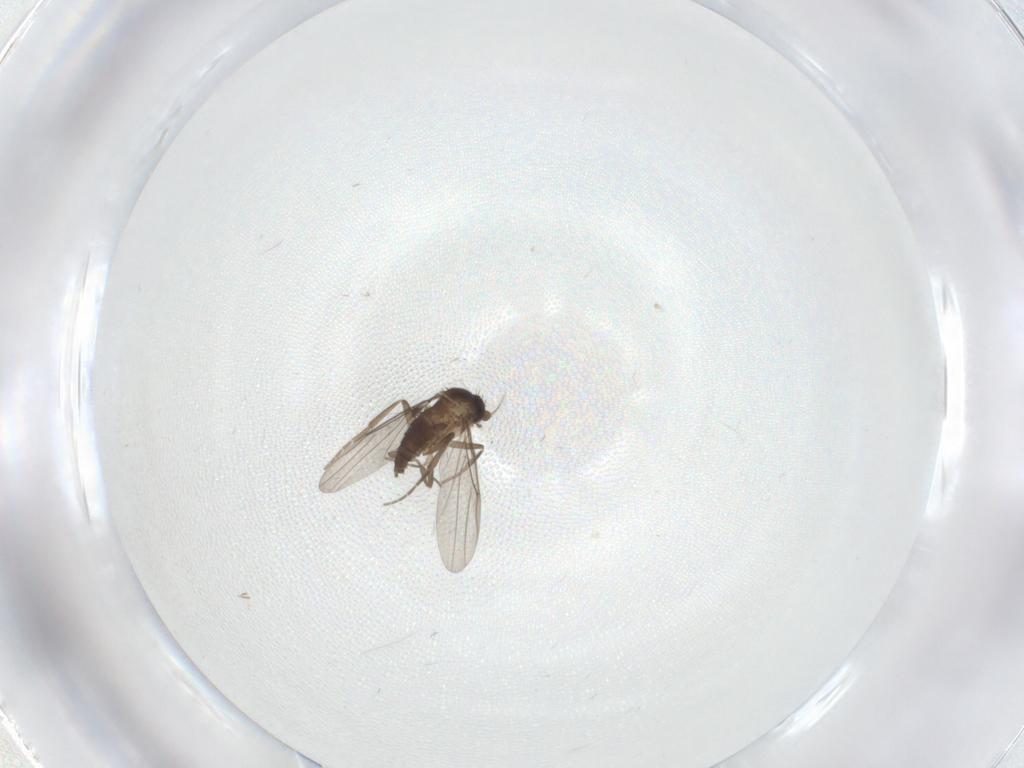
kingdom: Animalia
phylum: Arthropoda
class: Insecta
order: Diptera
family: Phoridae
